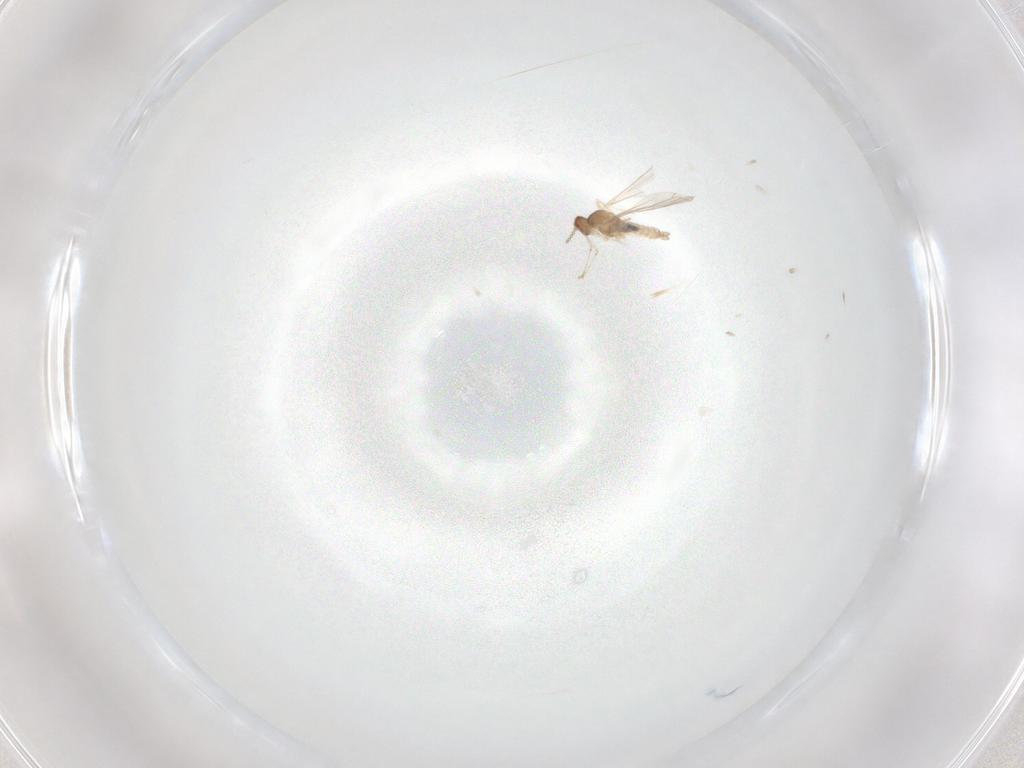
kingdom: Animalia
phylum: Arthropoda
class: Insecta
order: Diptera
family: Cecidomyiidae
